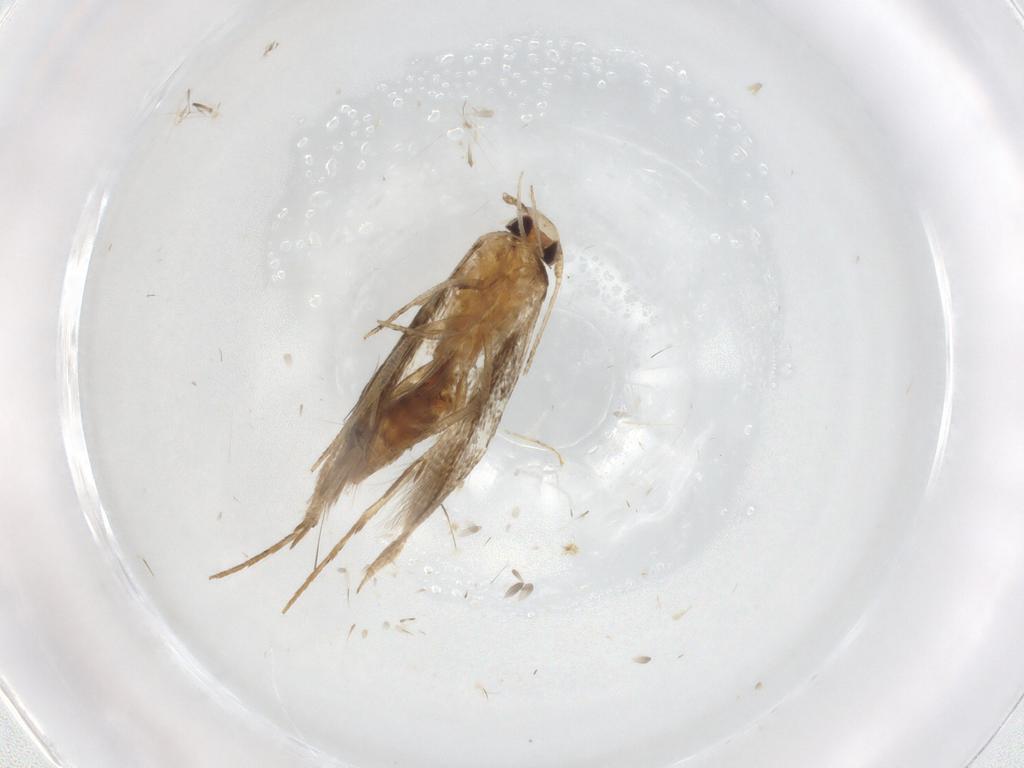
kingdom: Animalia
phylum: Arthropoda
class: Insecta
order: Lepidoptera
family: Cosmopterigidae
